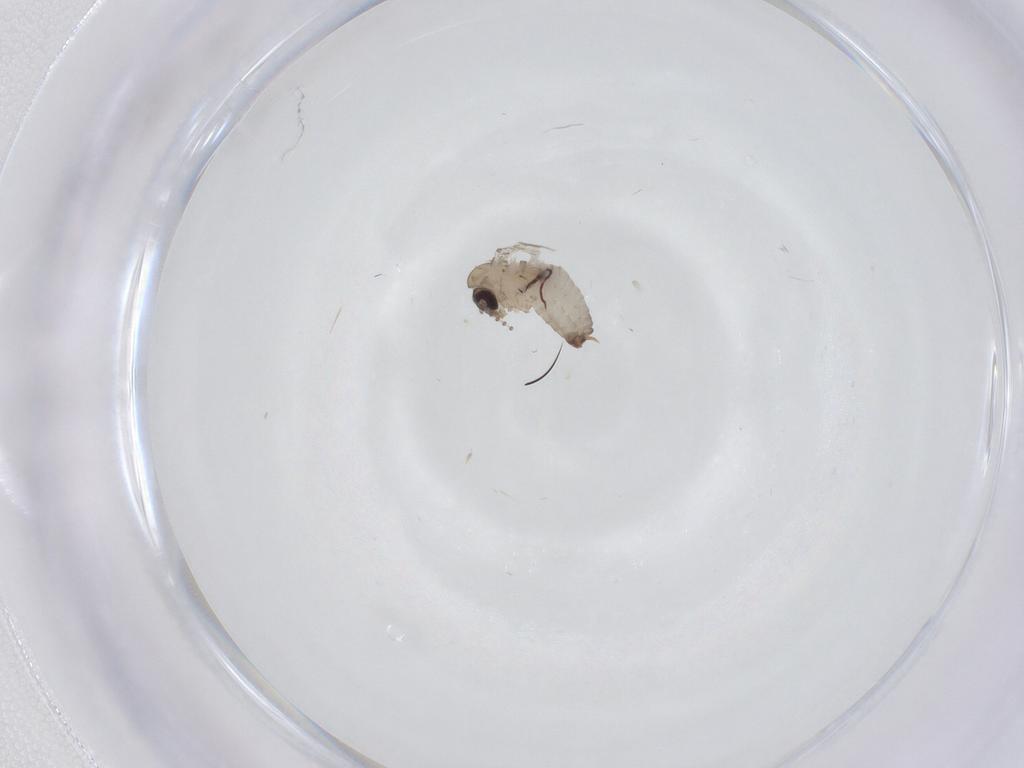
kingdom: Animalia
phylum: Arthropoda
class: Insecta
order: Diptera
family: Psychodidae
